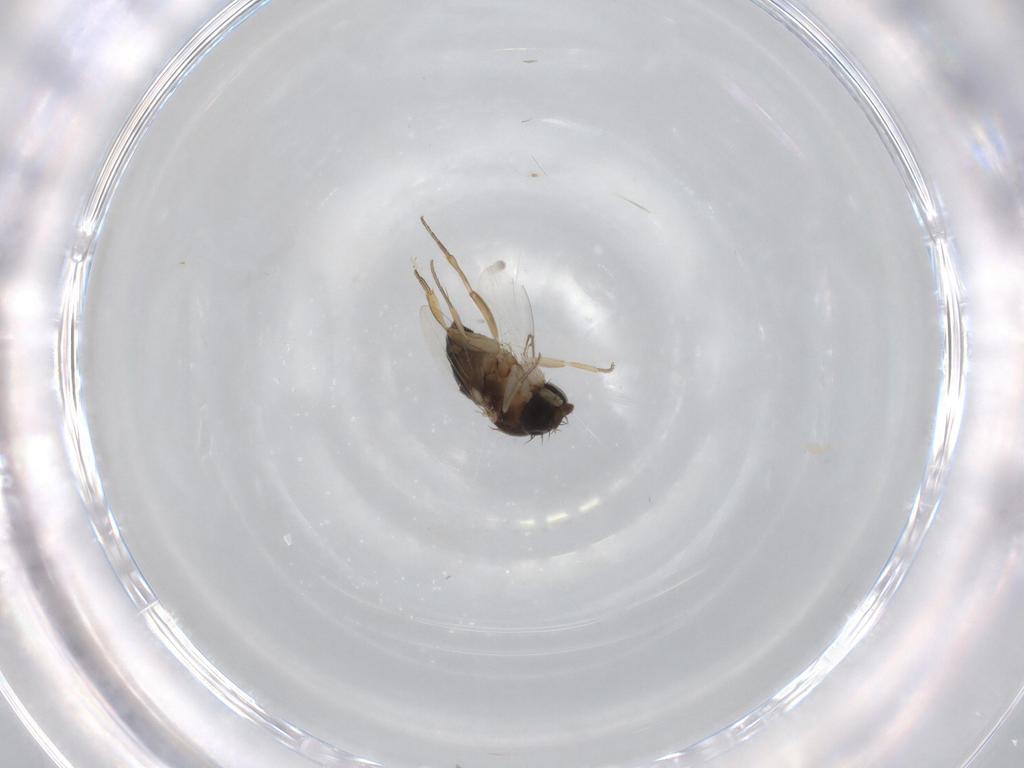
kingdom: Animalia
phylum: Arthropoda
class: Insecta
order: Diptera
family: Phoridae
